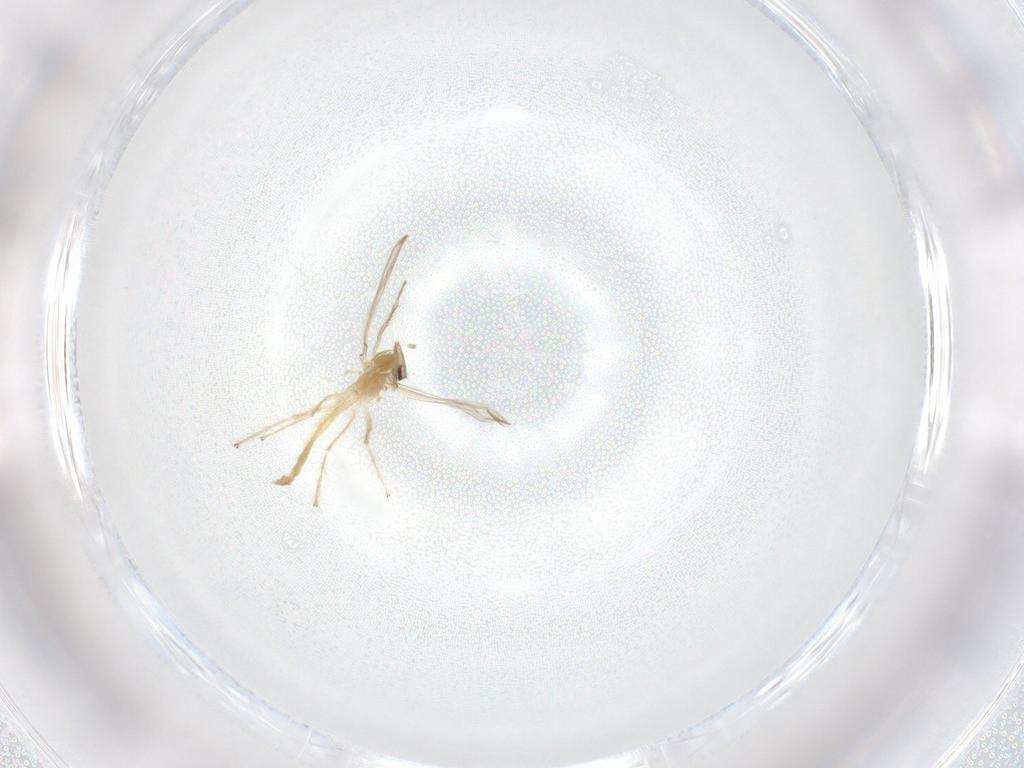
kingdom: Animalia
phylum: Arthropoda
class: Insecta
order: Diptera
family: Chironomidae
